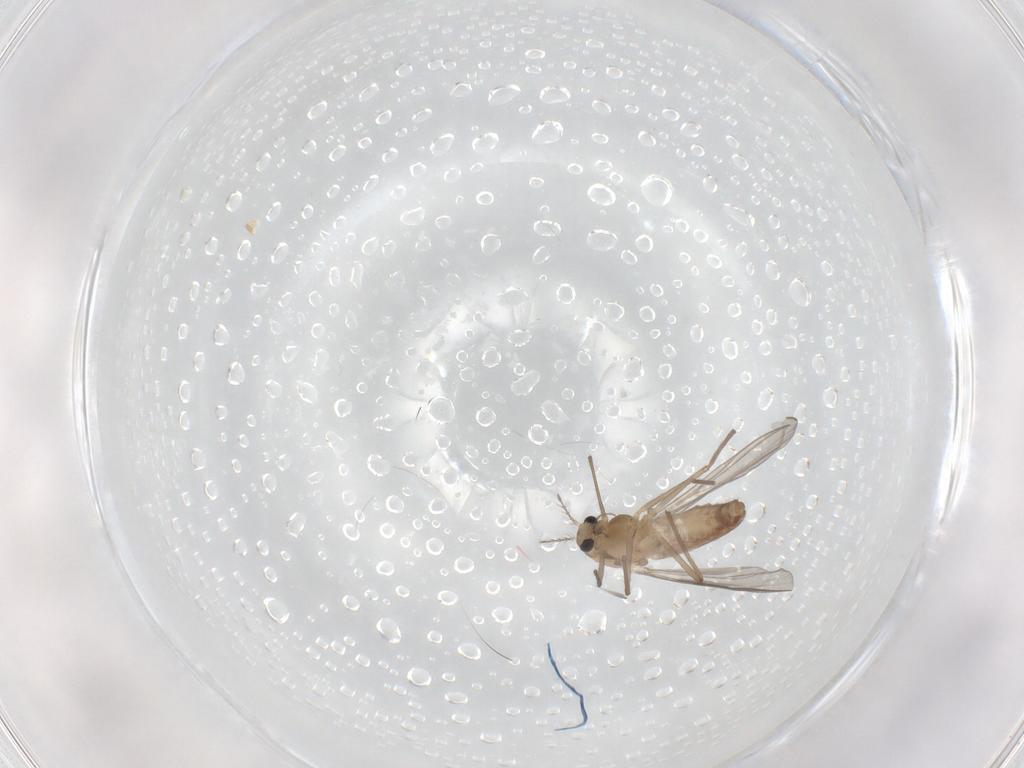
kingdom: Animalia
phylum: Arthropoda
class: Insecta
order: Diptera
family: Chironomidae
